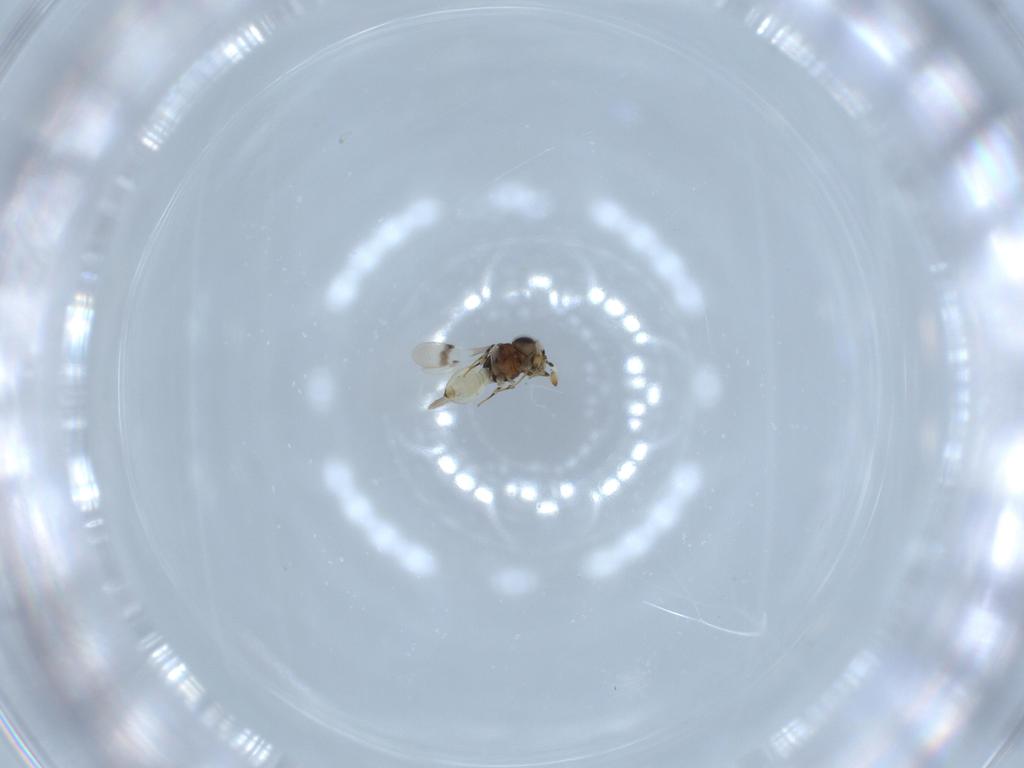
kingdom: Animalia
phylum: Arthropoda
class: Insecta
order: Hymenoptera
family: Scelionidae
